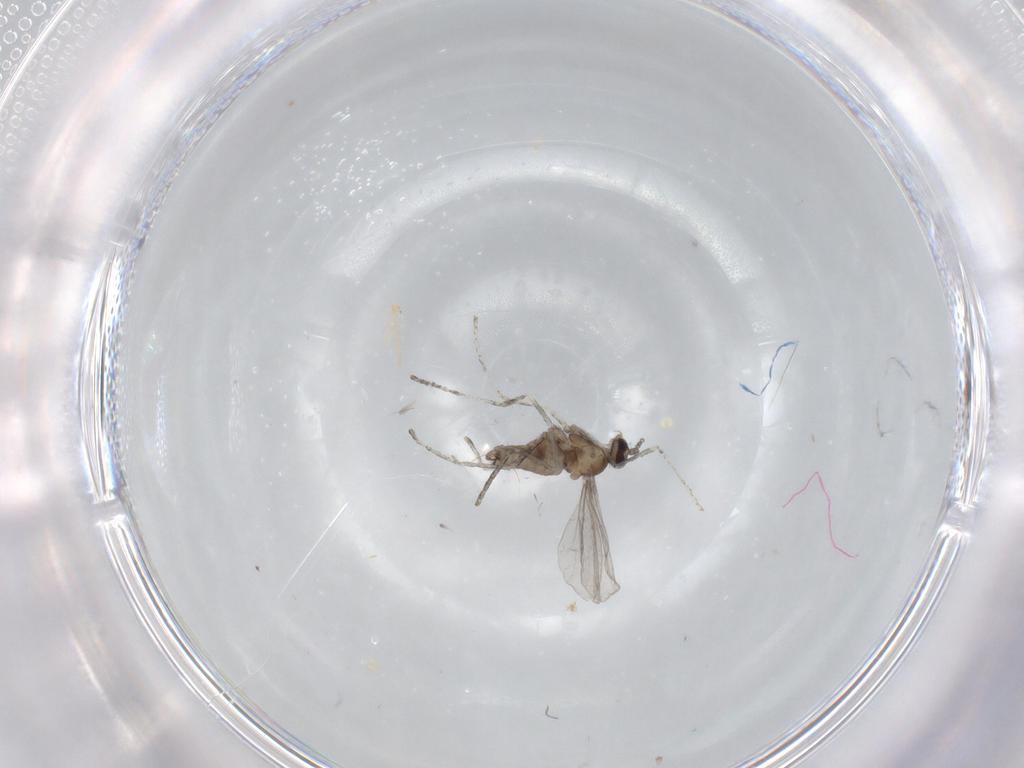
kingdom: Animalia
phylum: Arthropoda
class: Insecta
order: Diptera
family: Cecidomyiidae
